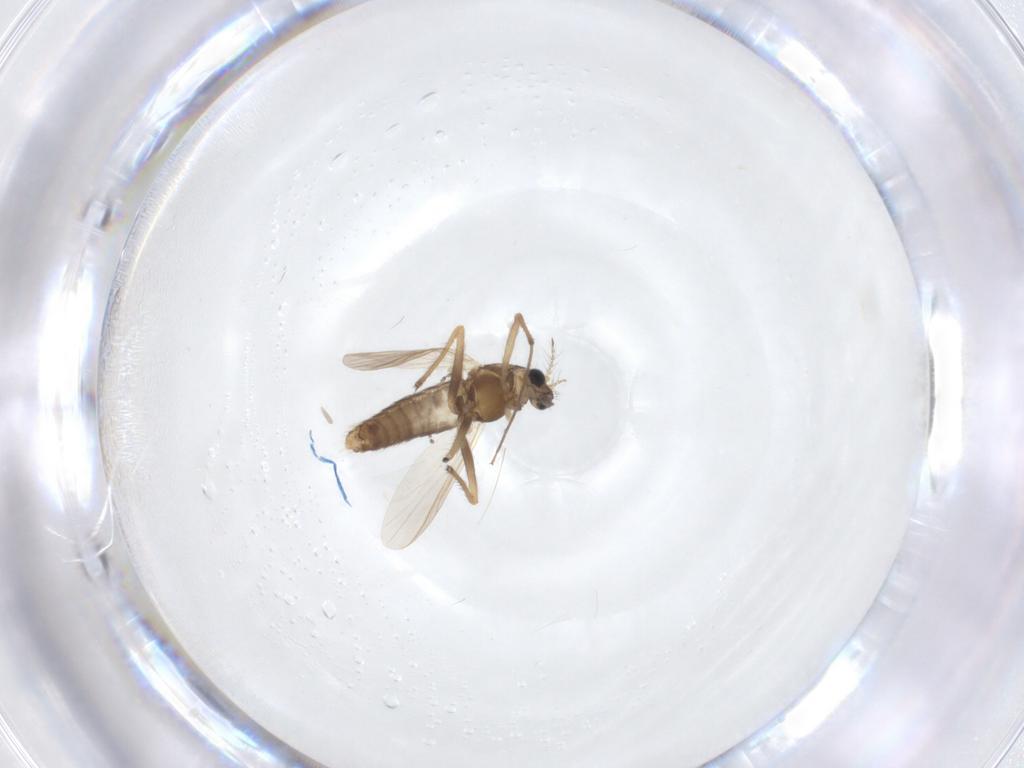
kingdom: Animalia
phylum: Arthropoda
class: Insecta
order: Diptera
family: Chironomidae
